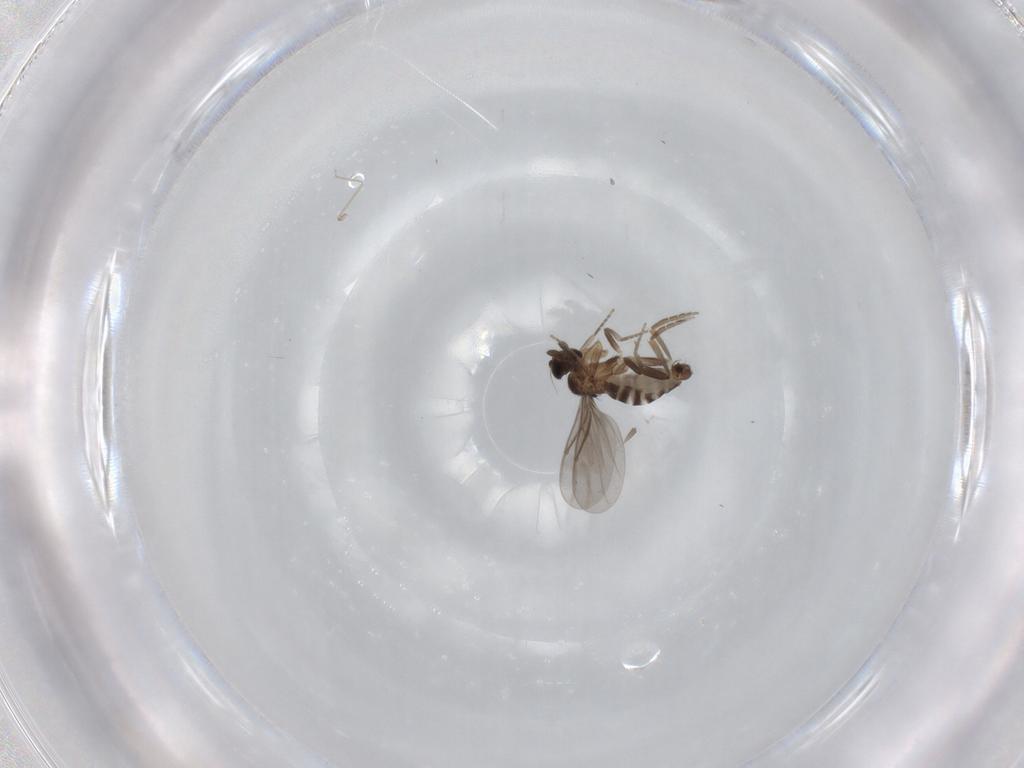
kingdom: Animalia
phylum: Arthropoda
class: Insecta
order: Diptera
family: Tabanidae
